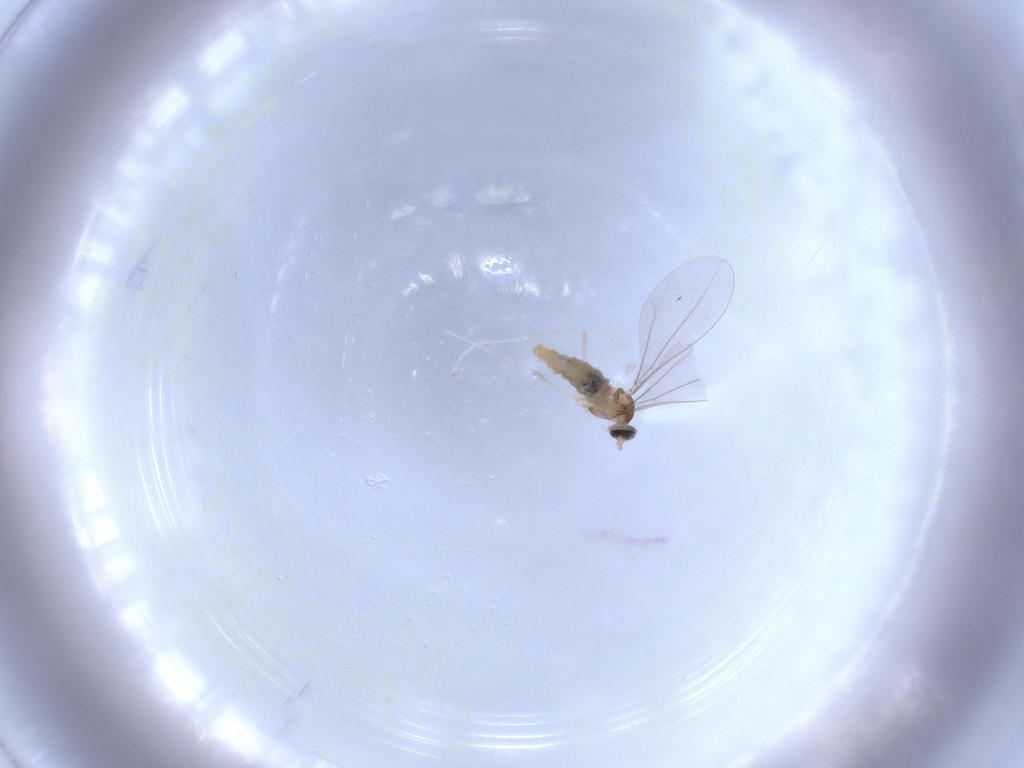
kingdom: Animalia
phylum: Arthropoda
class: Insecta
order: Diptera
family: Cecidomyiidae
